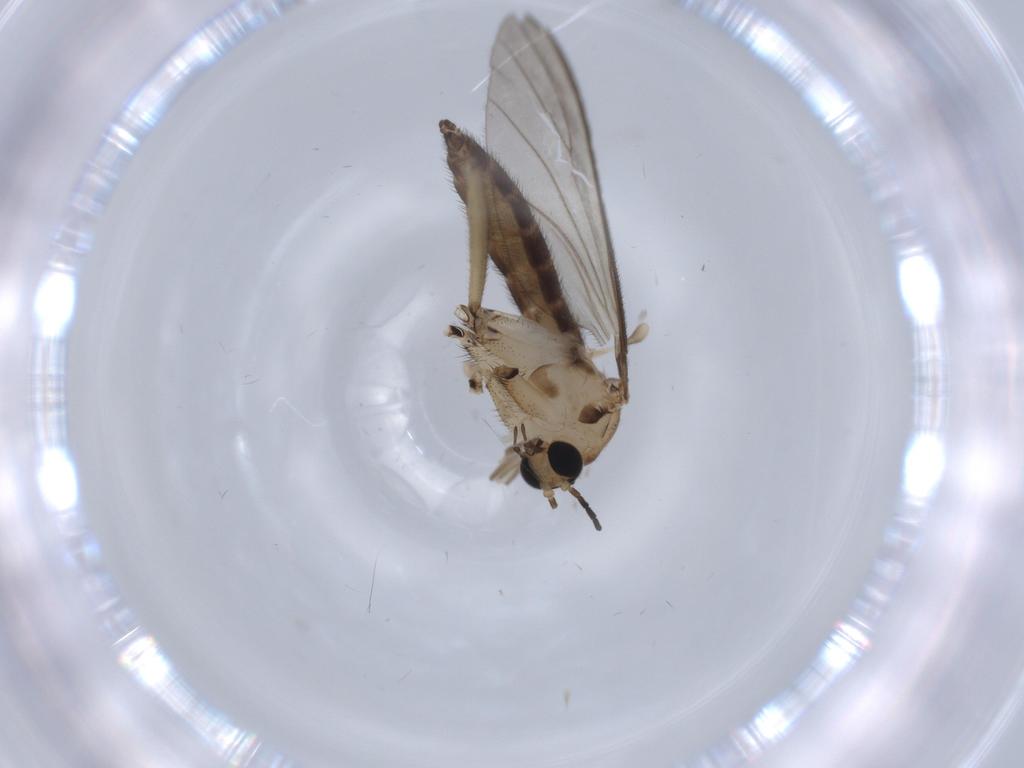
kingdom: Animalia
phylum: Arthropoda
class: Insecta
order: Diptera
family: Sciaridae
